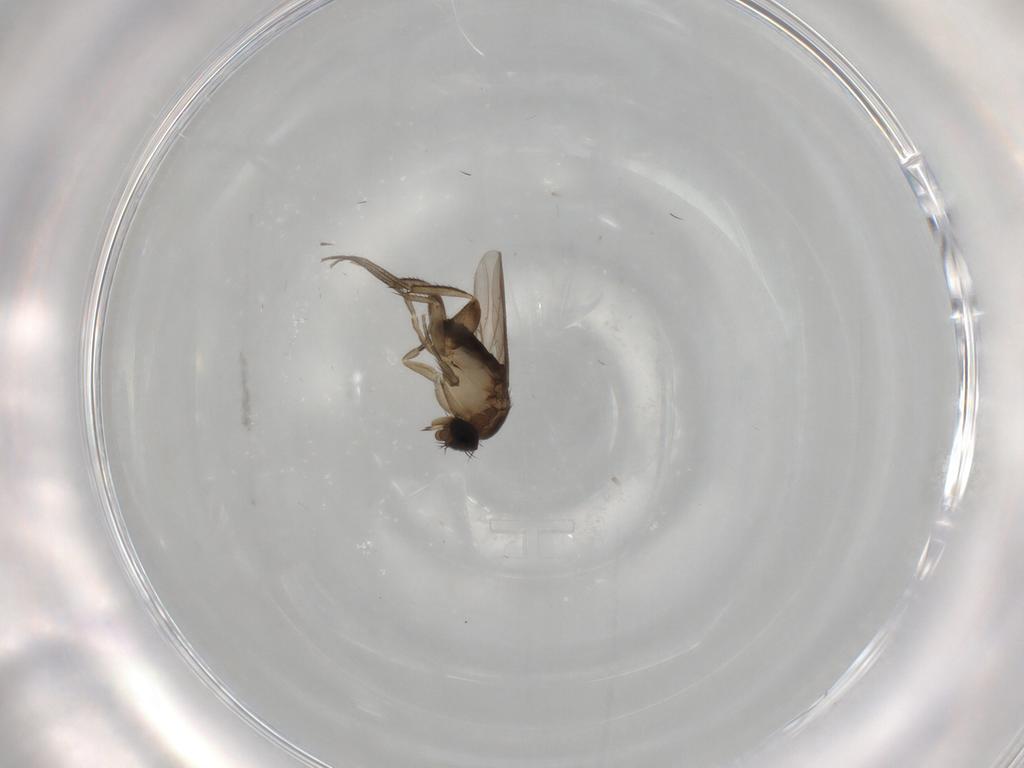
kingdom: Animalia
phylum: Arthropoda
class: Insecta
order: Diptera
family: Phoridae
